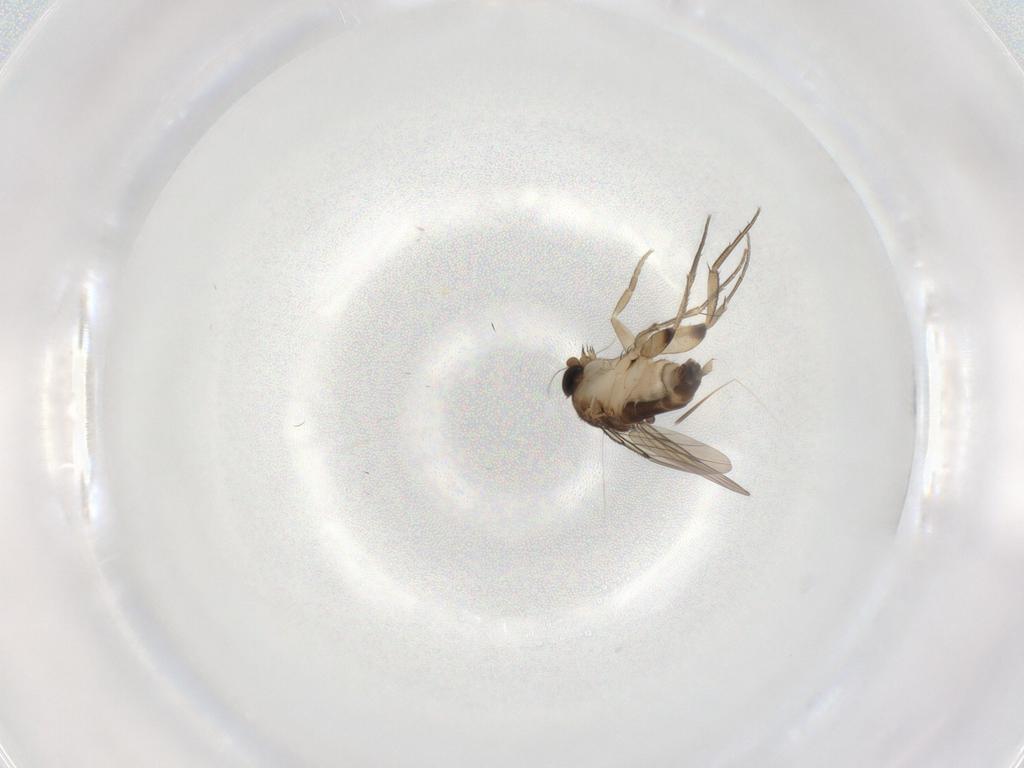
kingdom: Animalia
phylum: Arthropoda
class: Insecta
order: Diptera
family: Phoridae
